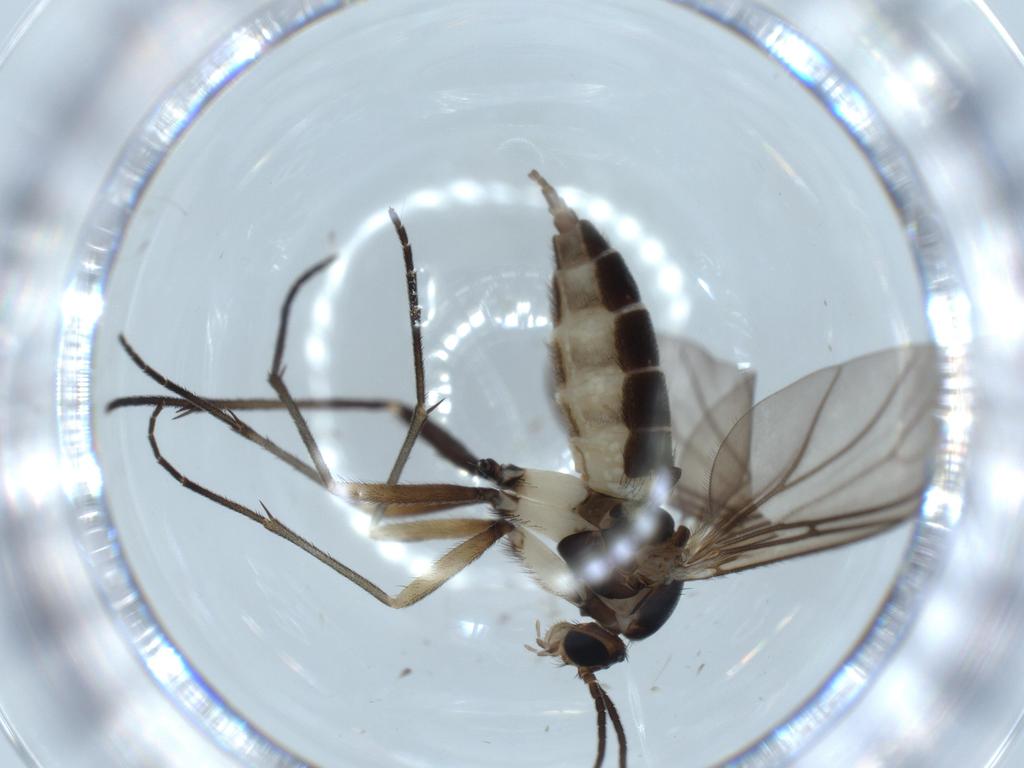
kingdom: Animalia
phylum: Arthropoda
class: Insecta
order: Diptera
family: Sciaridae
